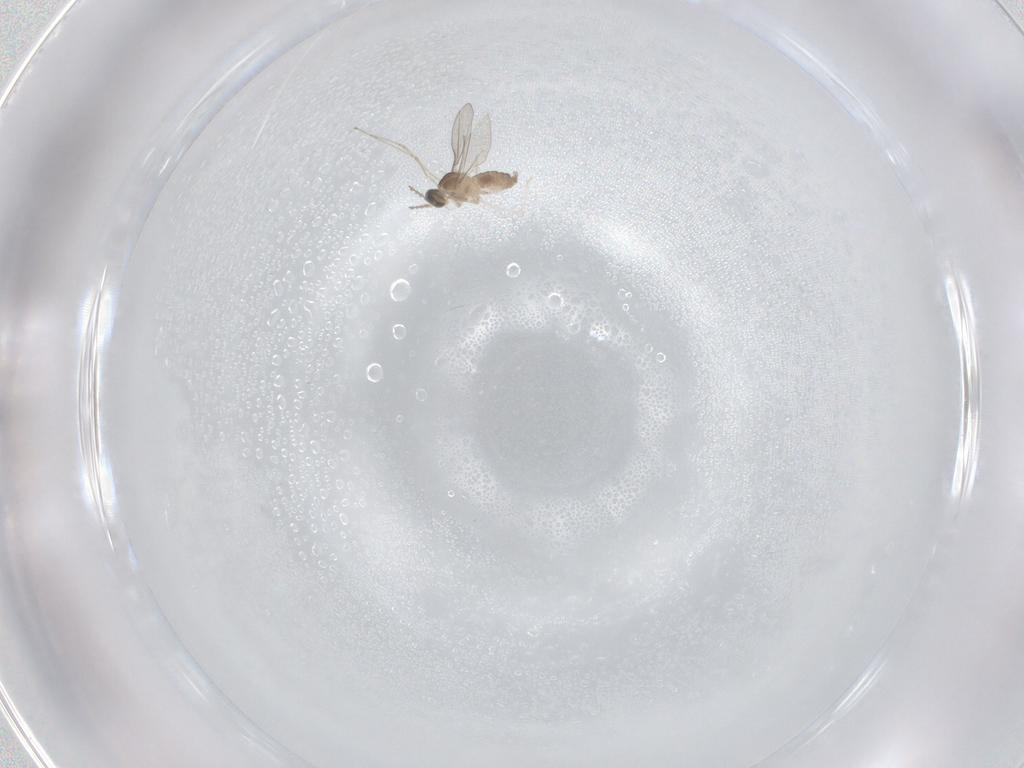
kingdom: Animalia
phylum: Arthropoda
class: Insecta
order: Diptera
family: Cecidomyiidae
